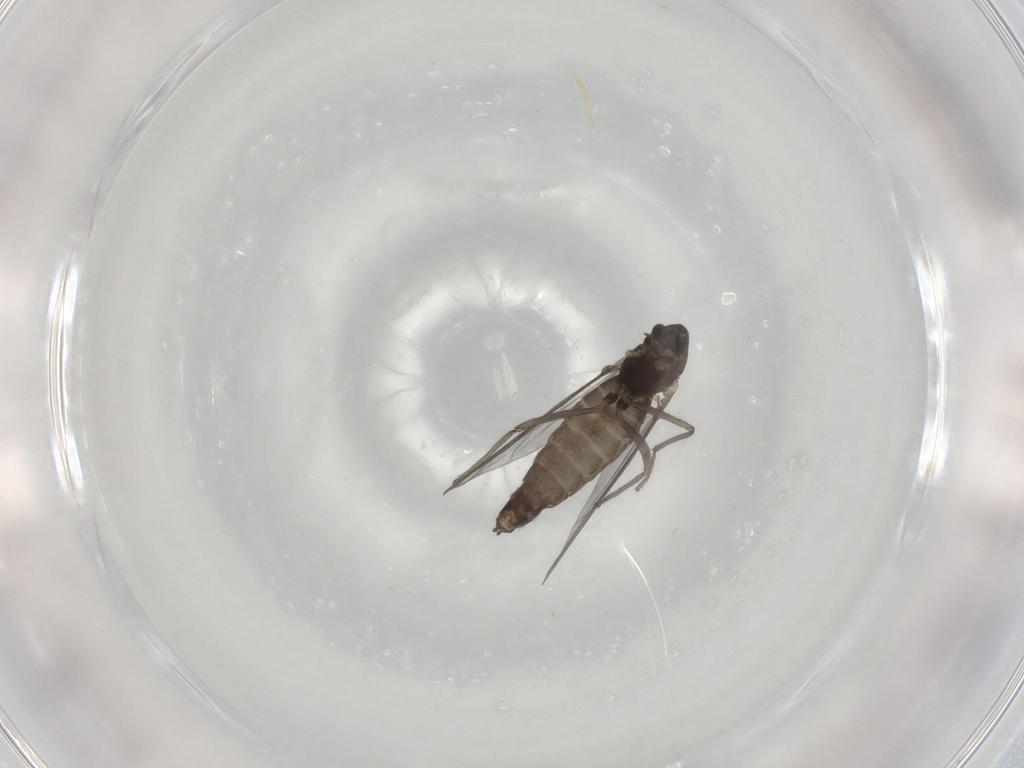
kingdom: Animalia
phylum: Arthropoda
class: Insecta
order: Diptera
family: Chironomidae
